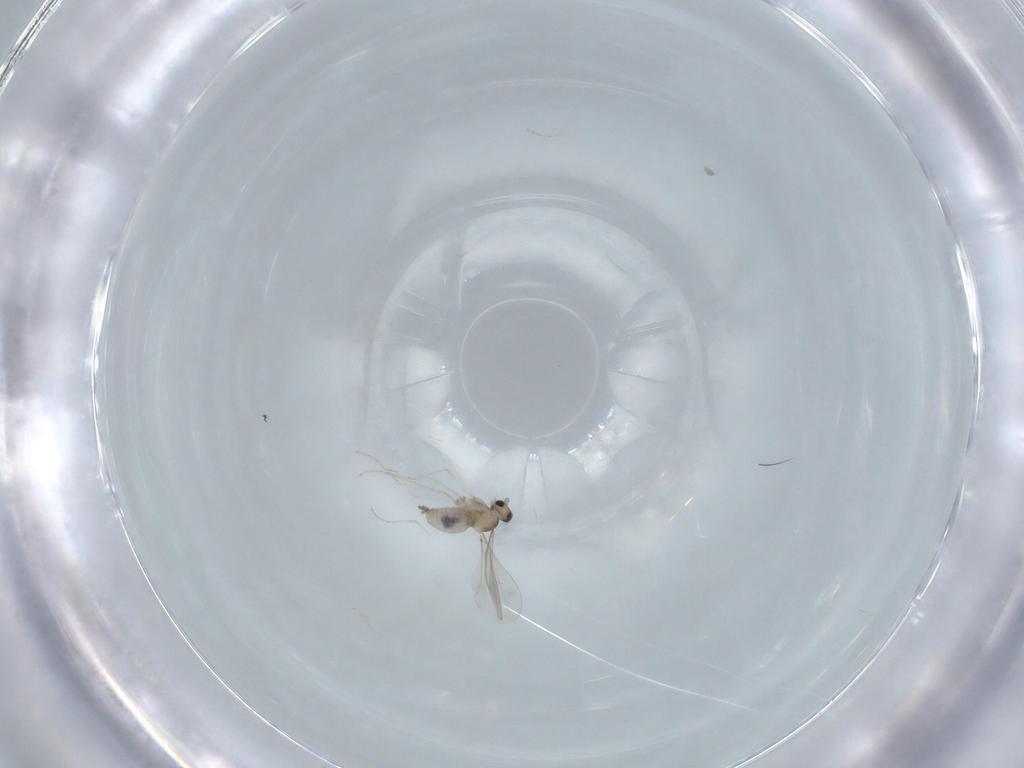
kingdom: Animalia
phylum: Arthropoda
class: Insecta
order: Diptera
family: Cecidomyiidae
